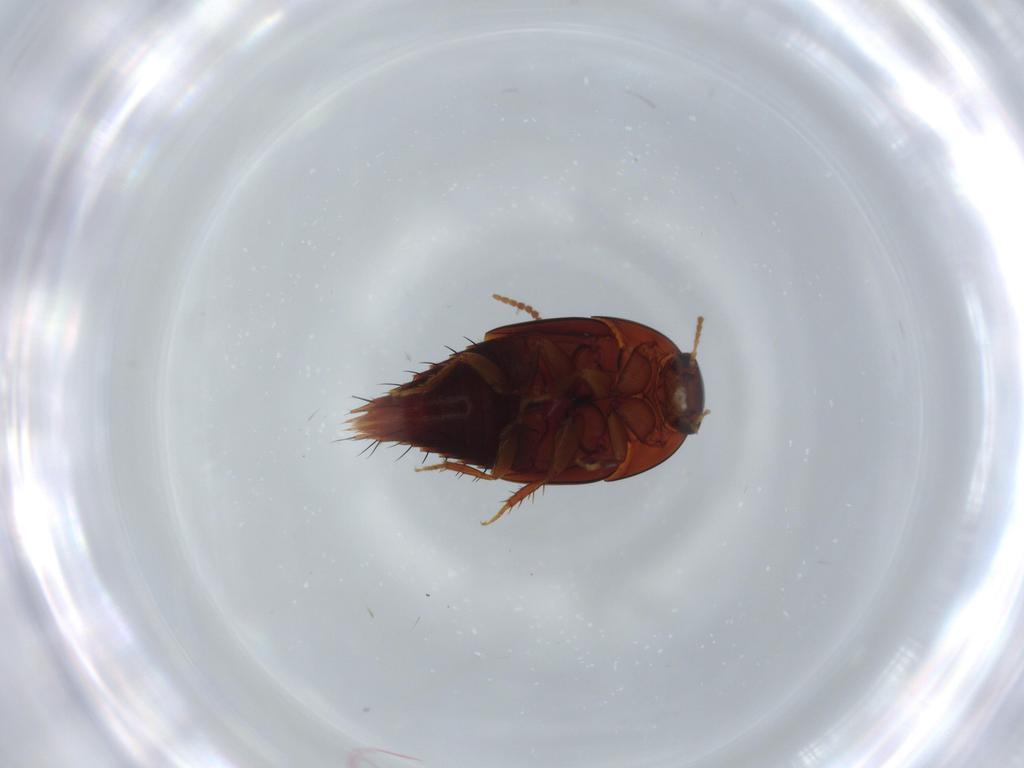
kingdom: Animalia
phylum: Arthropoda
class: Insecta
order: Coleoptera
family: Staphylinidae
